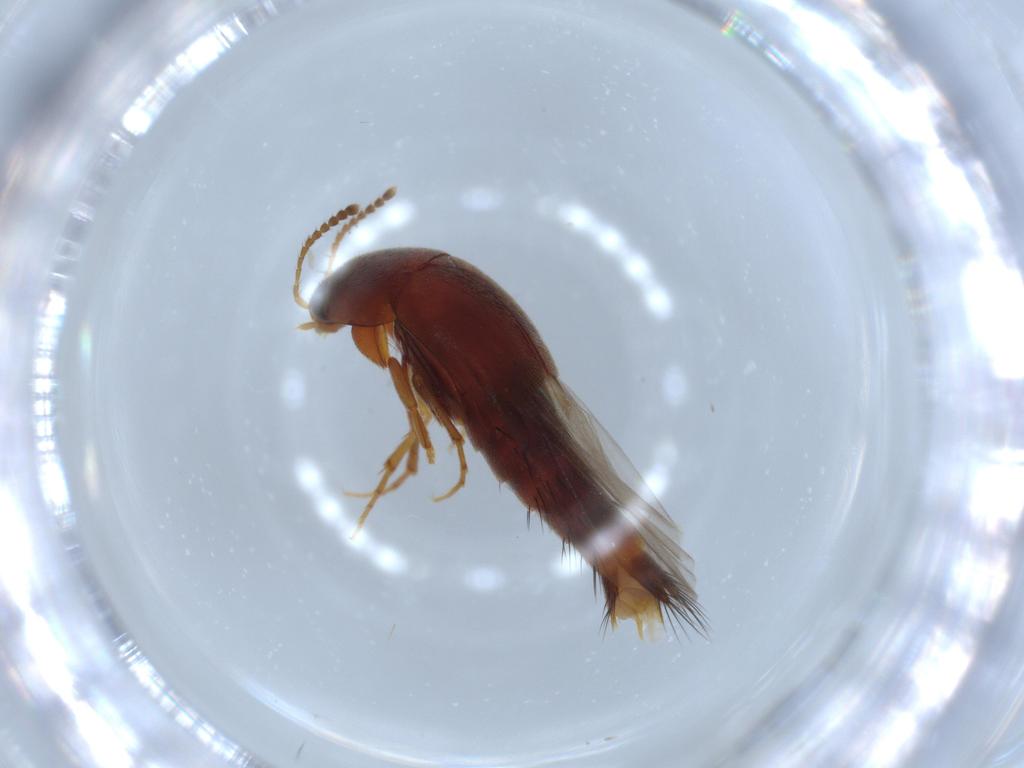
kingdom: Animalia
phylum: Arthropoda
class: Insecta
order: Coleoptera
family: Staphylinidae
